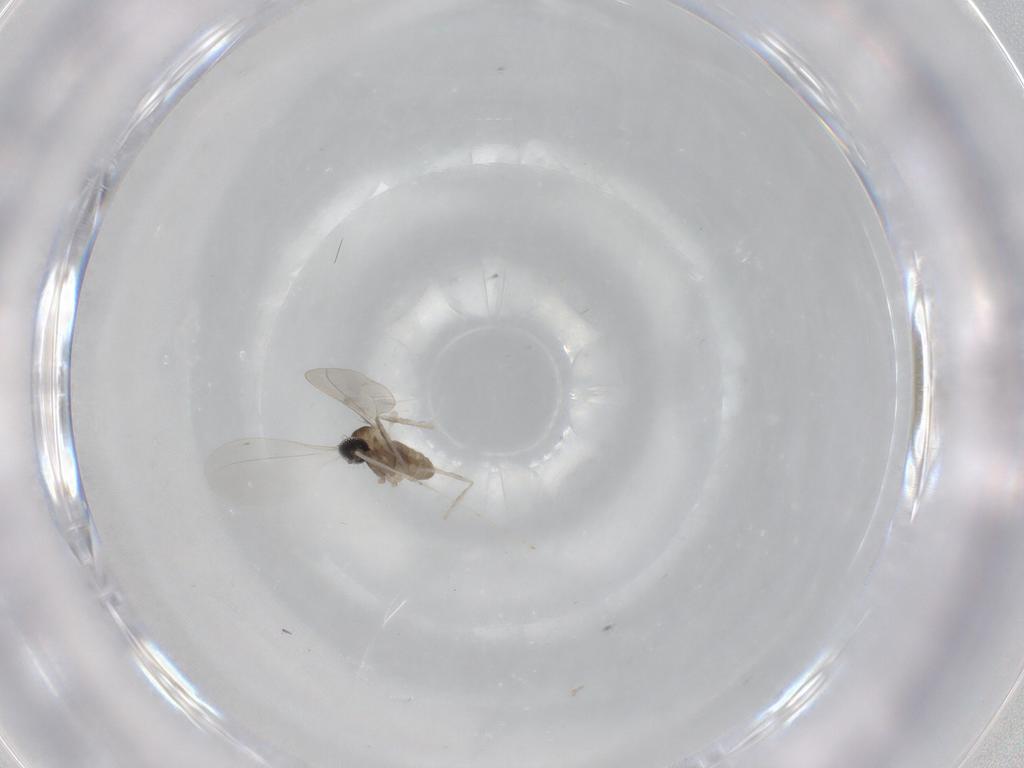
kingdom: Animalia
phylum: Arthropoda
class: Insecta
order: Diptera
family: Cecidomyiidae
